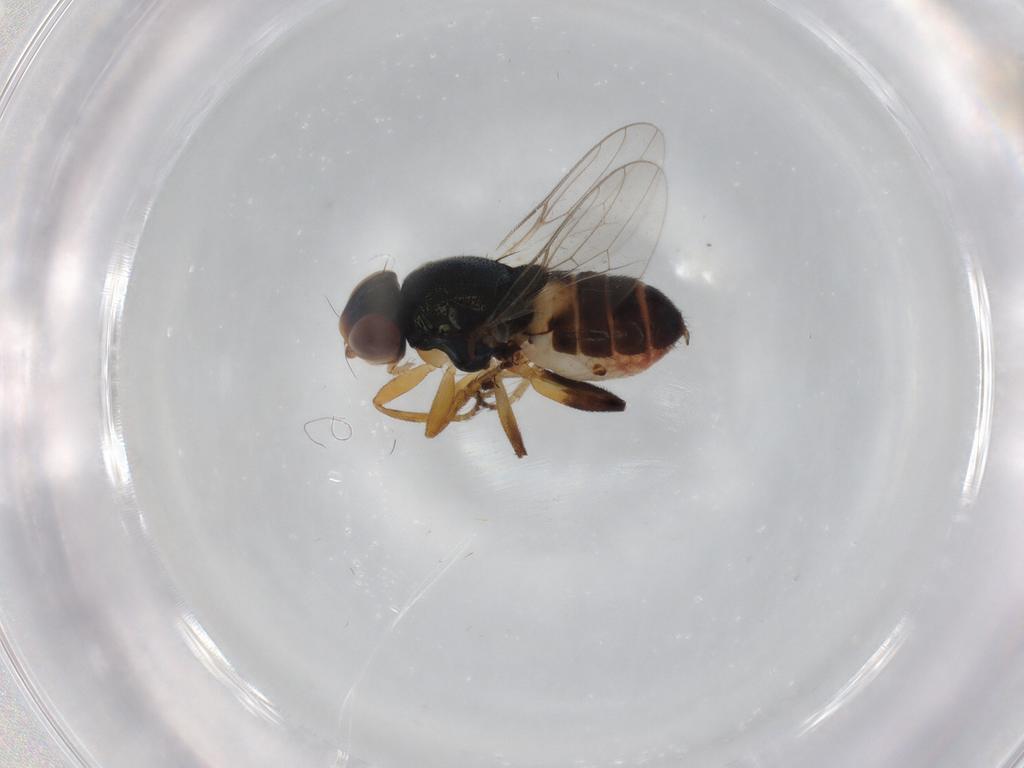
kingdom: Animalia
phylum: Arthropoda
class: Insecta
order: Diptera
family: Chloropidae
